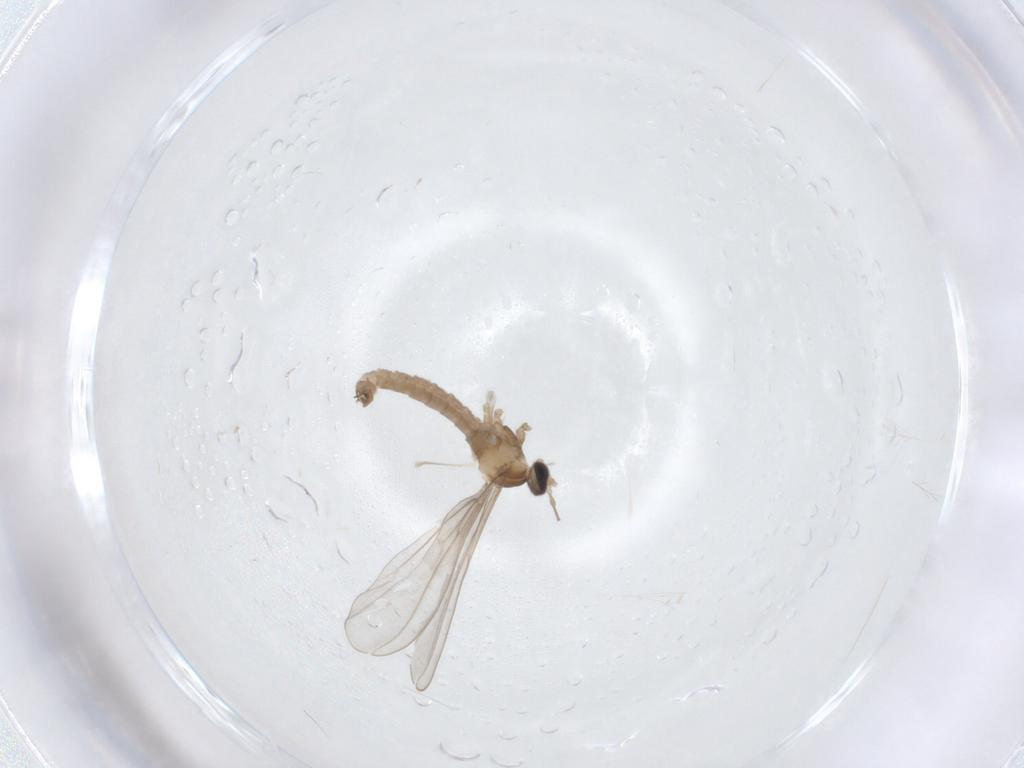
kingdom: Animalia
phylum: Arthropoda
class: Insecta
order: Diptera
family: Cecidomyiidae
